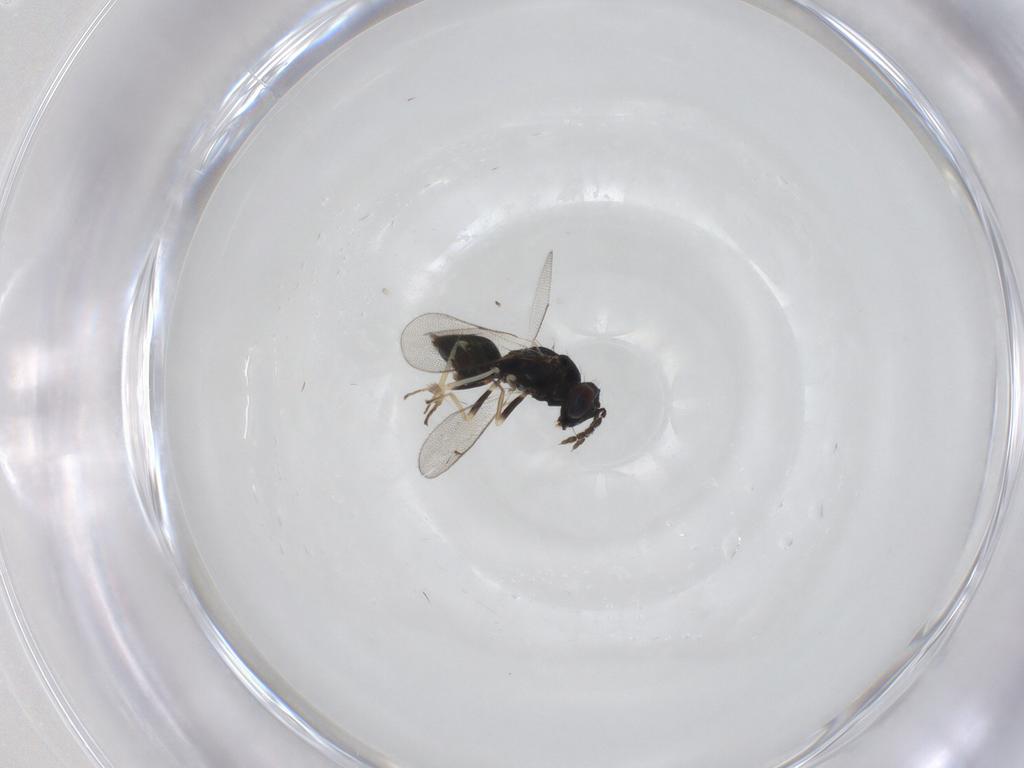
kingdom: Animalia
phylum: Arthropoda
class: Insecta
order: Hymenoptera
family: Eulophidae
